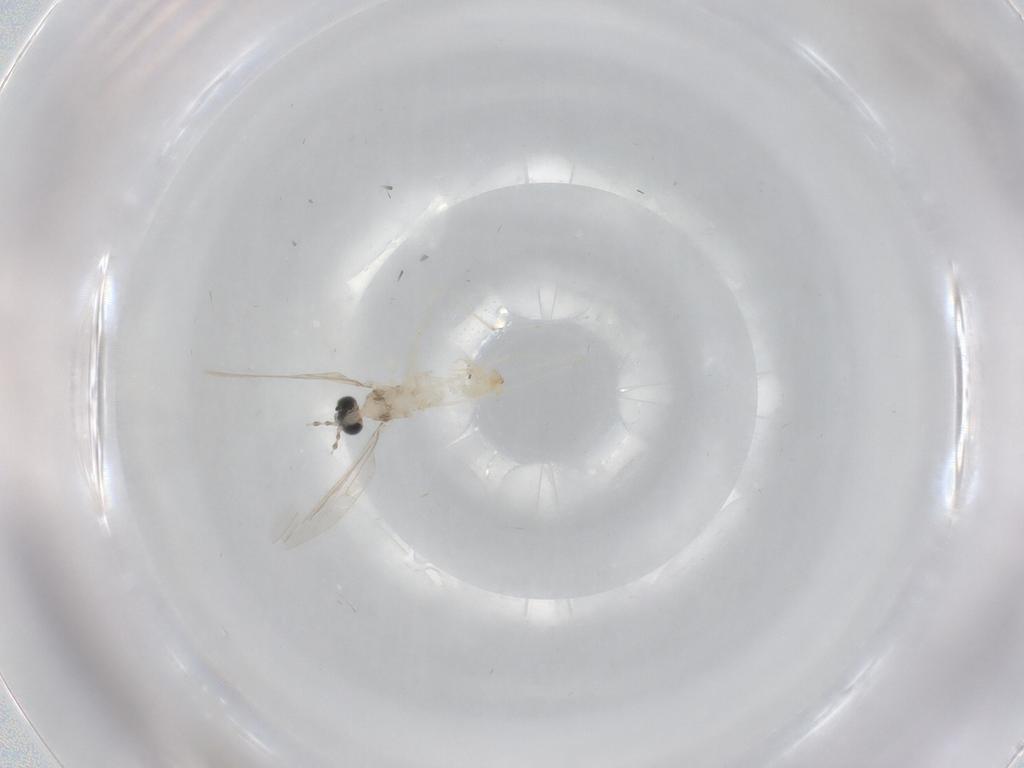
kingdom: Animalia
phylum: Arthropoda
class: Insecta
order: Diptera
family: Cecidomyiidae
